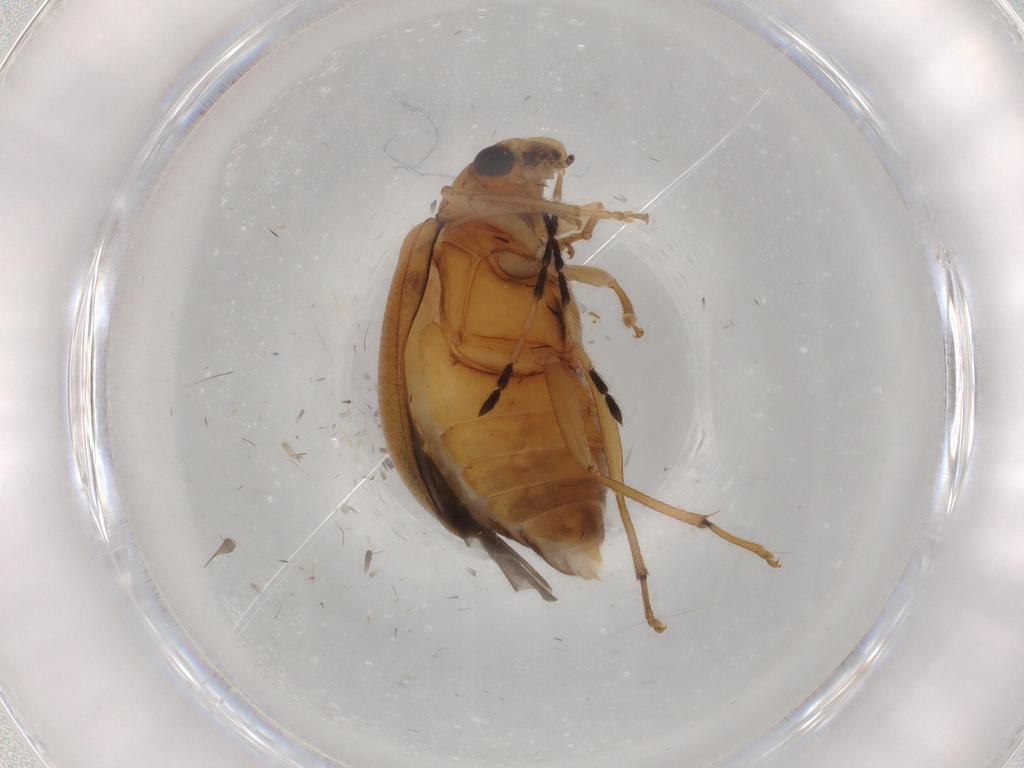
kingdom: Animalia
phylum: Arthropoda
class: Insecta
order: Coleoptera
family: Chrysomelidae
